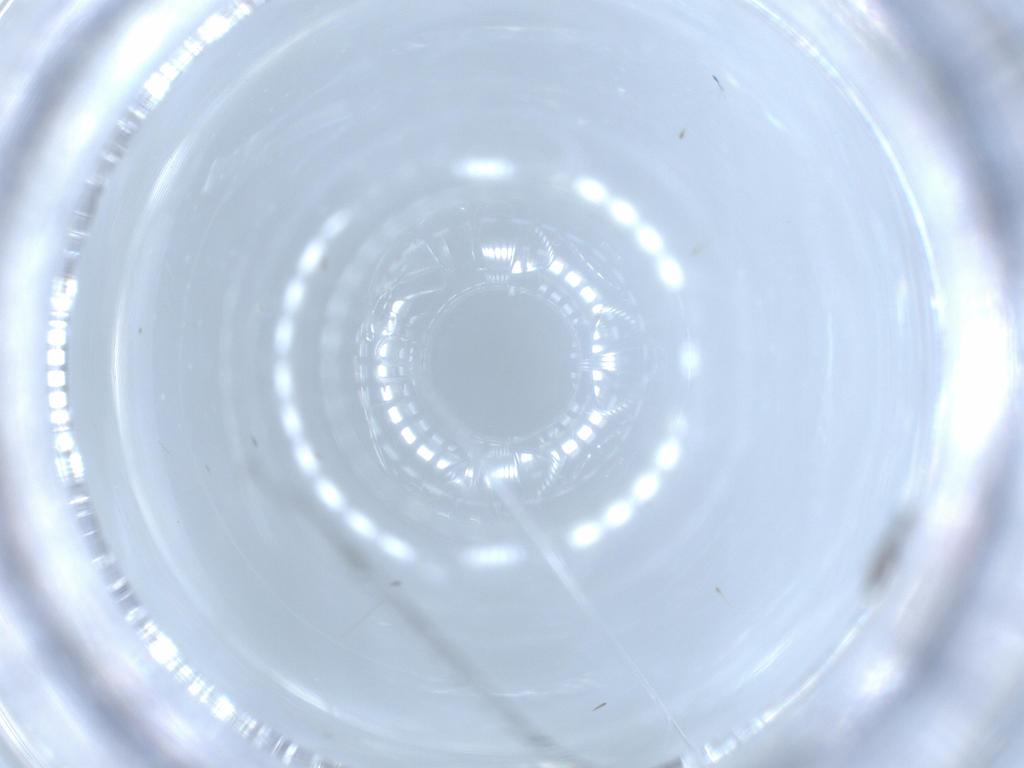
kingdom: Animalia
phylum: Arthropoda
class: Insecta
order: Diptera
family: Sciaridae
